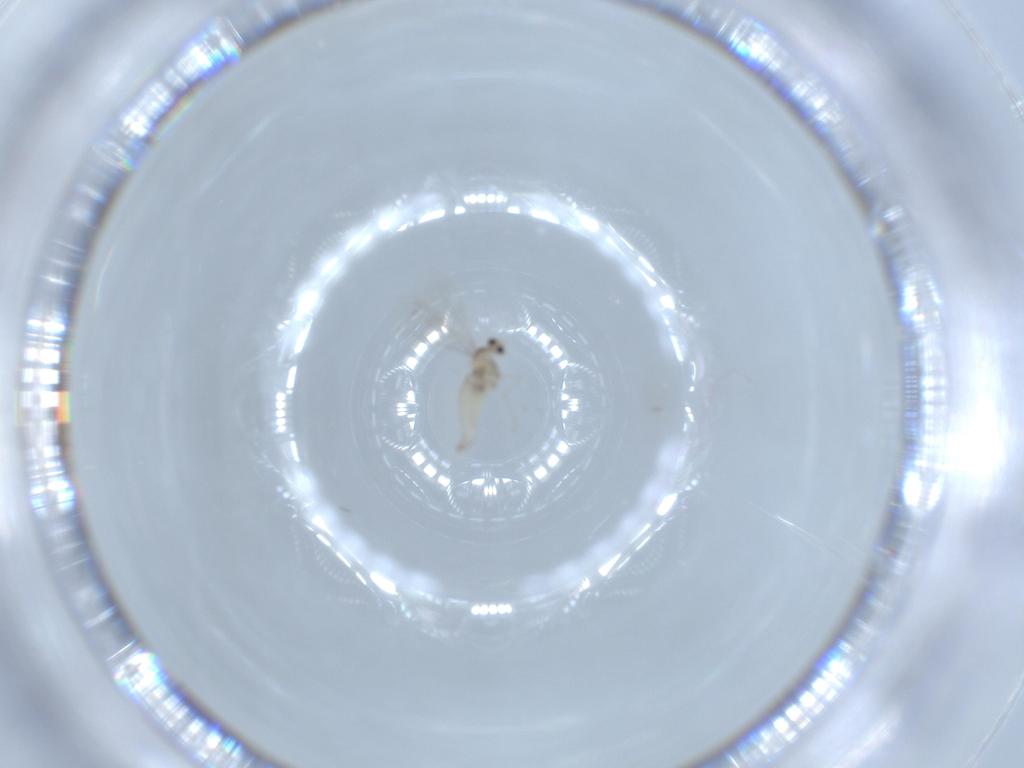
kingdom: Animalia
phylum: Arthropoda
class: Insecta
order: Diptera
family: Cecidomyiidae
